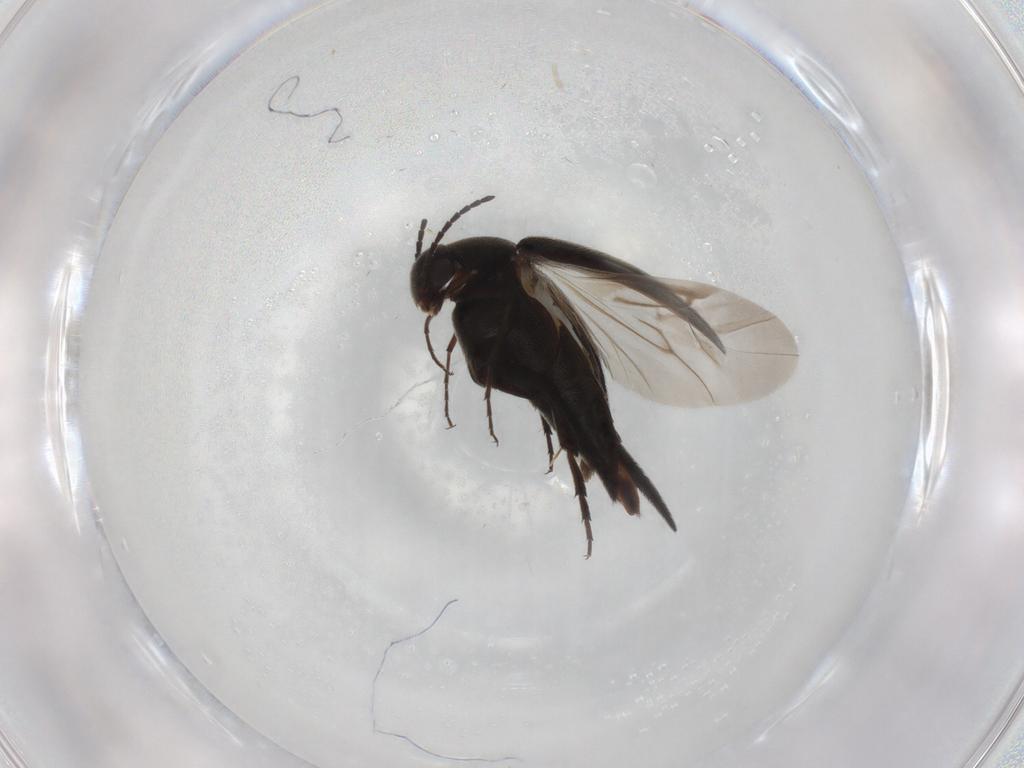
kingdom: Animalia
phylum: Arthropoda
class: Insecta
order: Coleoptera
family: Mordellidae
